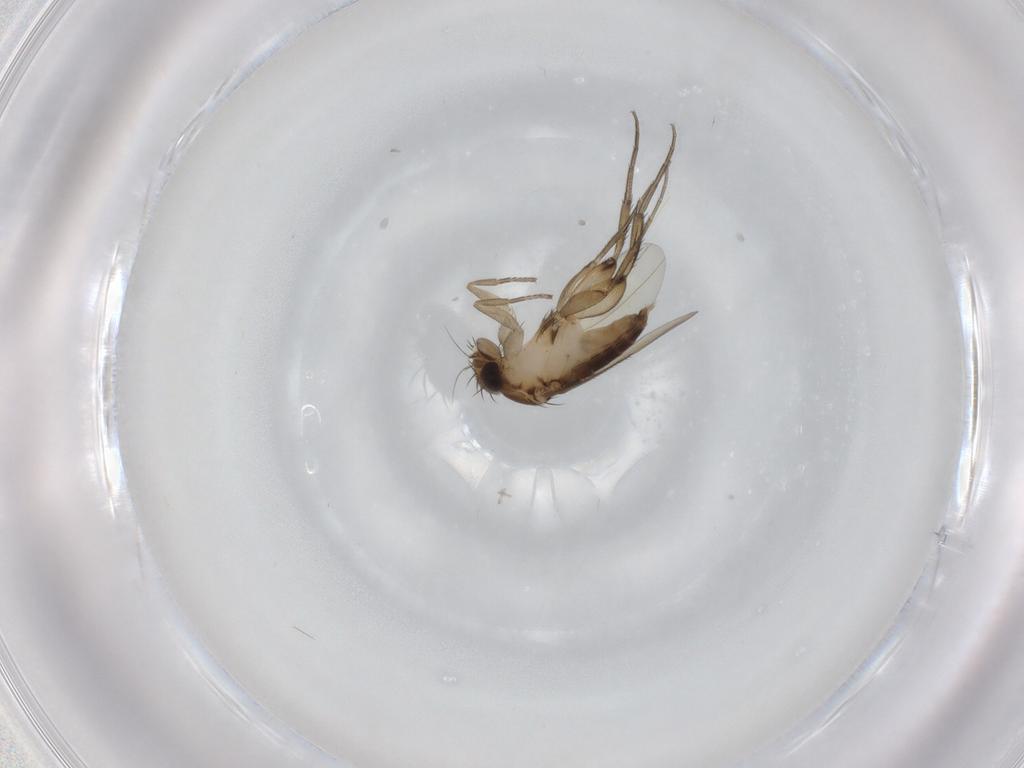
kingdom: Animalia
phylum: Arthropoda
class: Insecta
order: Diptera
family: Phoridae
